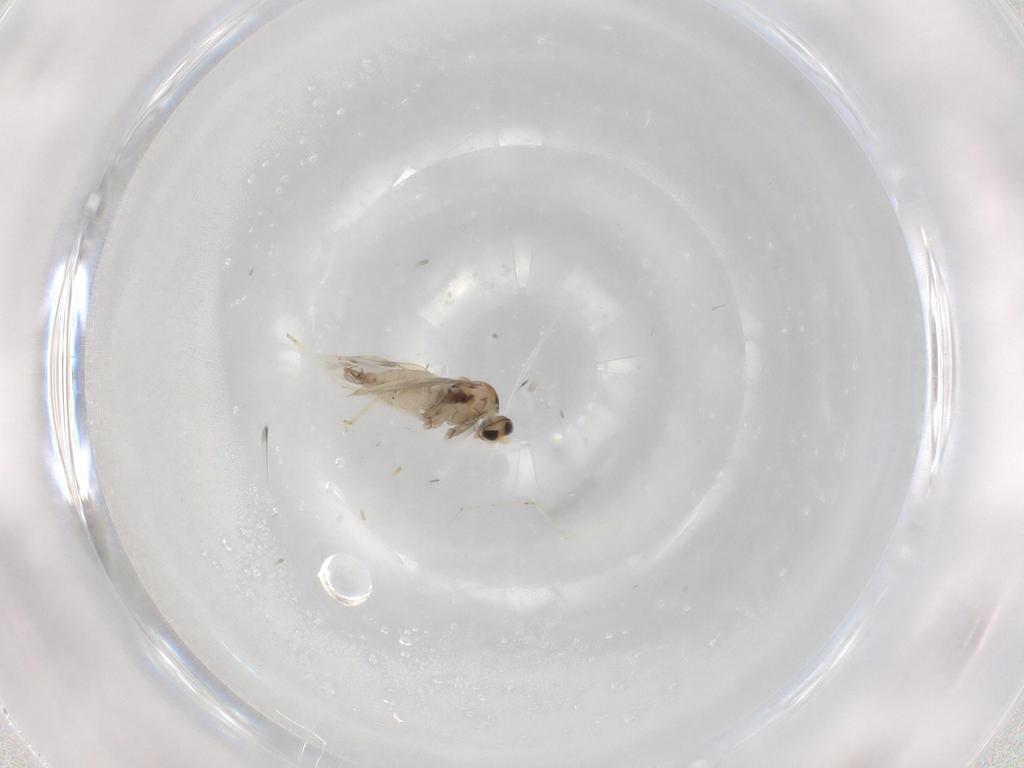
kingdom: Animalia
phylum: Arthropoda
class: Insecta
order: Diptera
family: Cecidomyiidae
